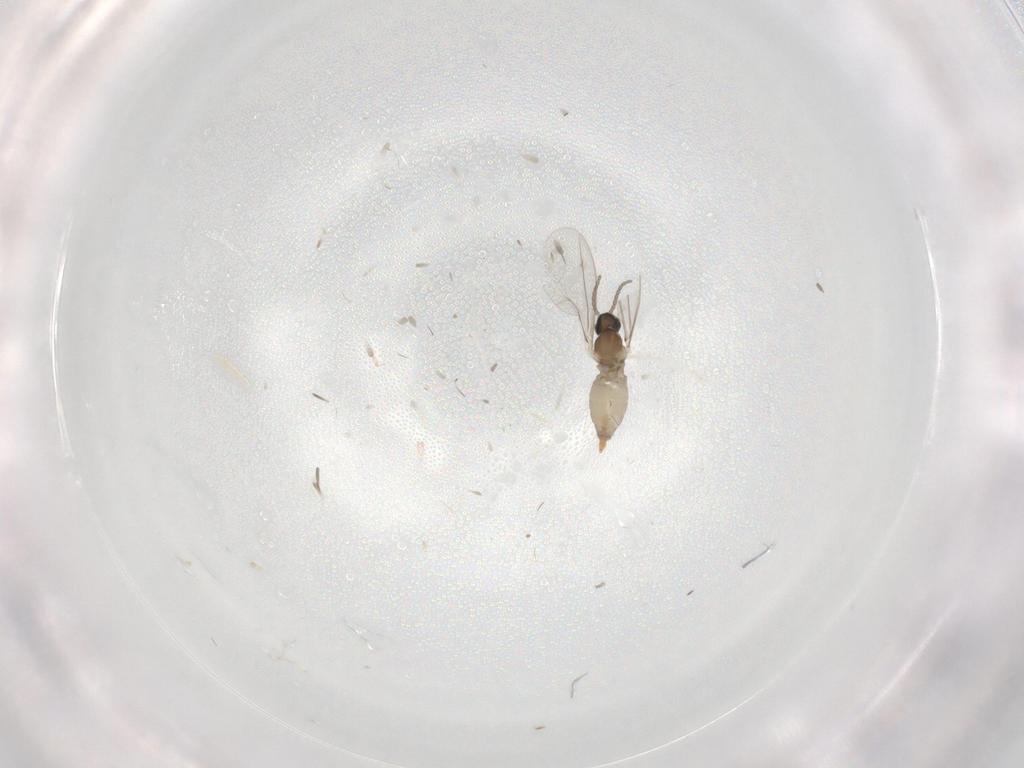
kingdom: Animalia
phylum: Arthropoda
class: Insecta
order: Diptera
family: Cecidomyiidae
